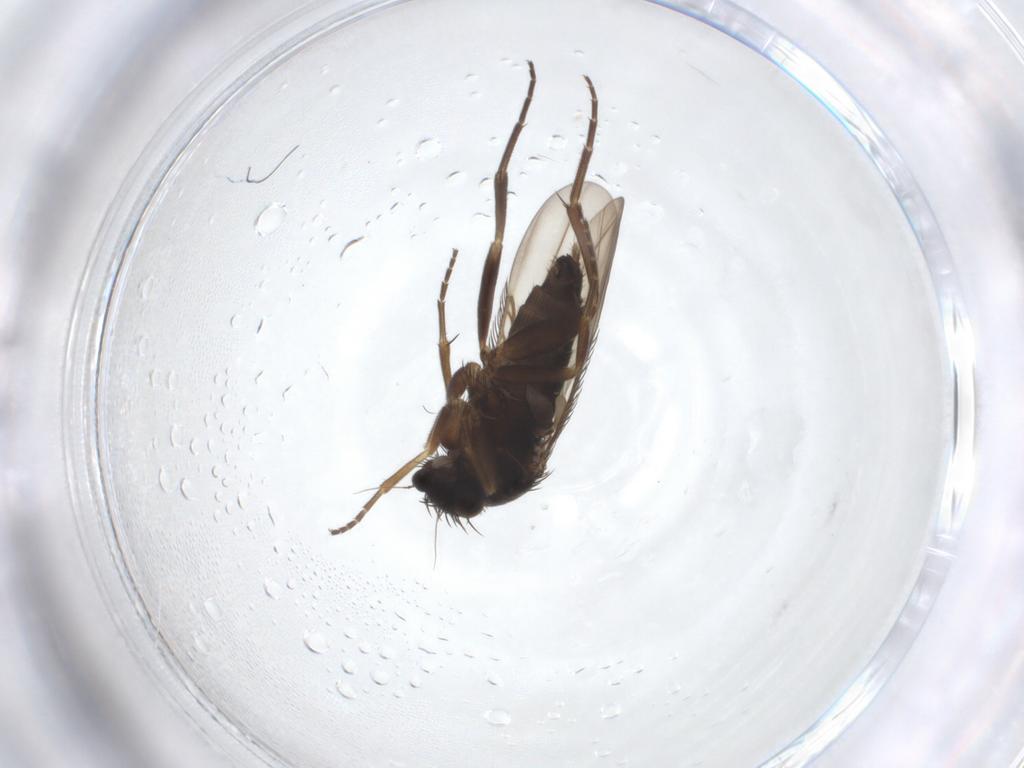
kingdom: Animalia
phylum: Arthropoda
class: Insecta
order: Diptera
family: Phoridae
